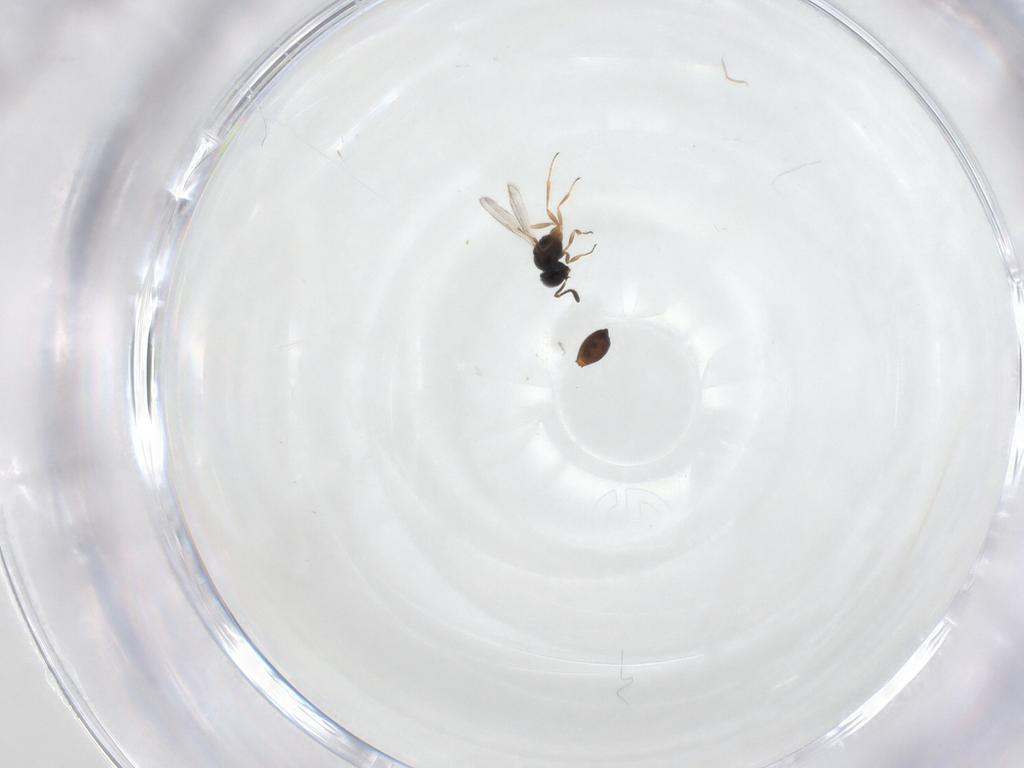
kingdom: Animalia
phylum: Arthropoda
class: Insecta
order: Hymenoptera
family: Scelionidae
